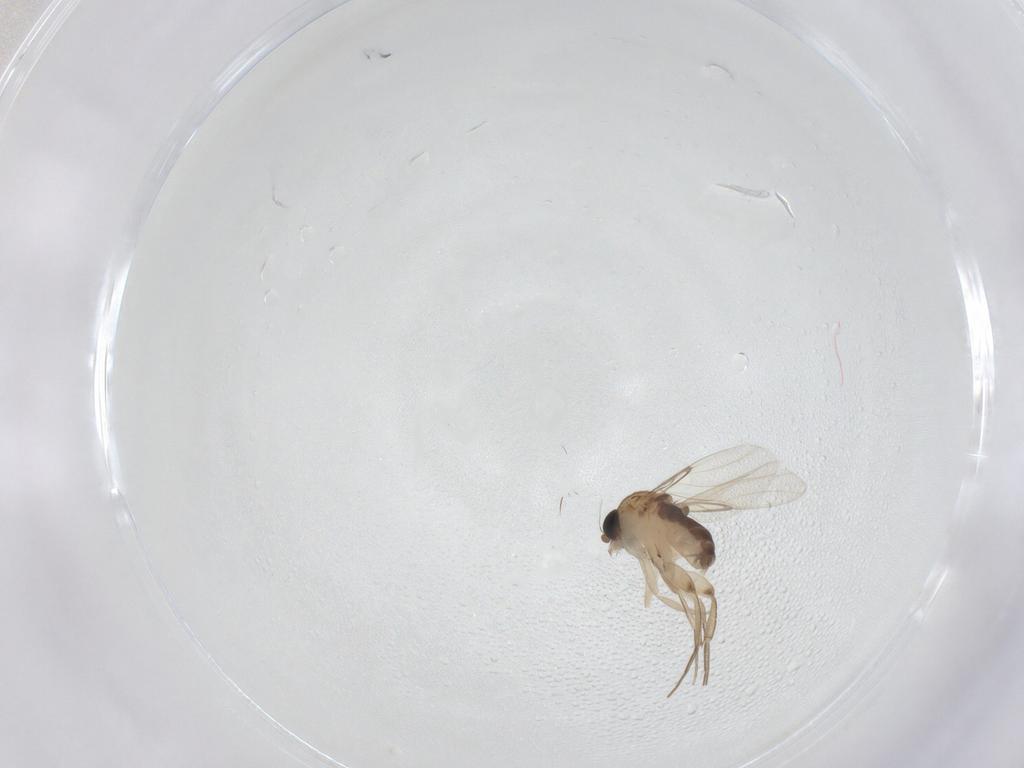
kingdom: Animalia
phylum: Arthropoda
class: Insecta
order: Diptera
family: Phoridae
